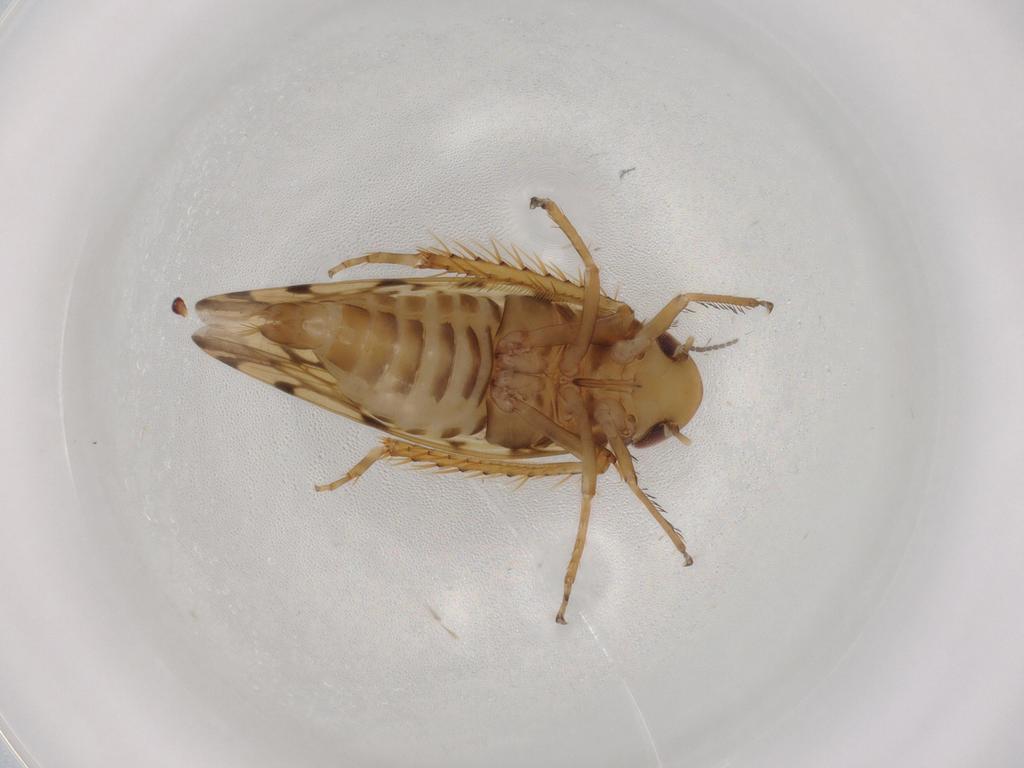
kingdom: Animalia
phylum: Arthropoda
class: Insecta
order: Hemiptera
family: Cicadellidae
